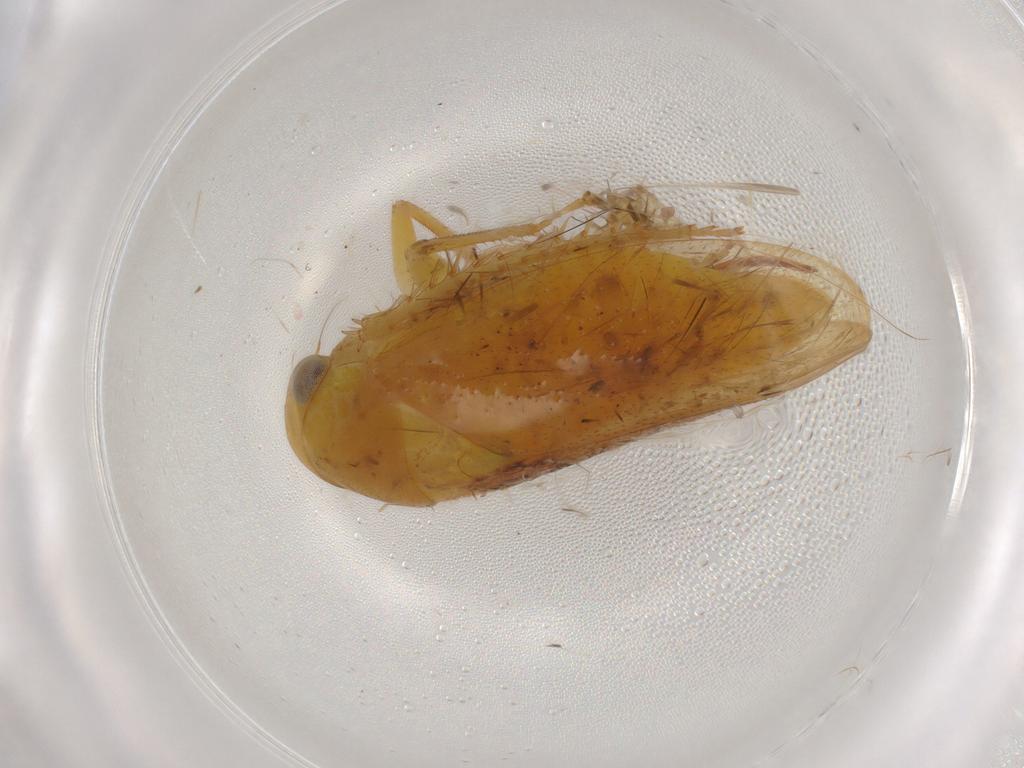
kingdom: Animalia
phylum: Arthropoda
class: Insecta
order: Hemiptera
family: Cicadellidae
